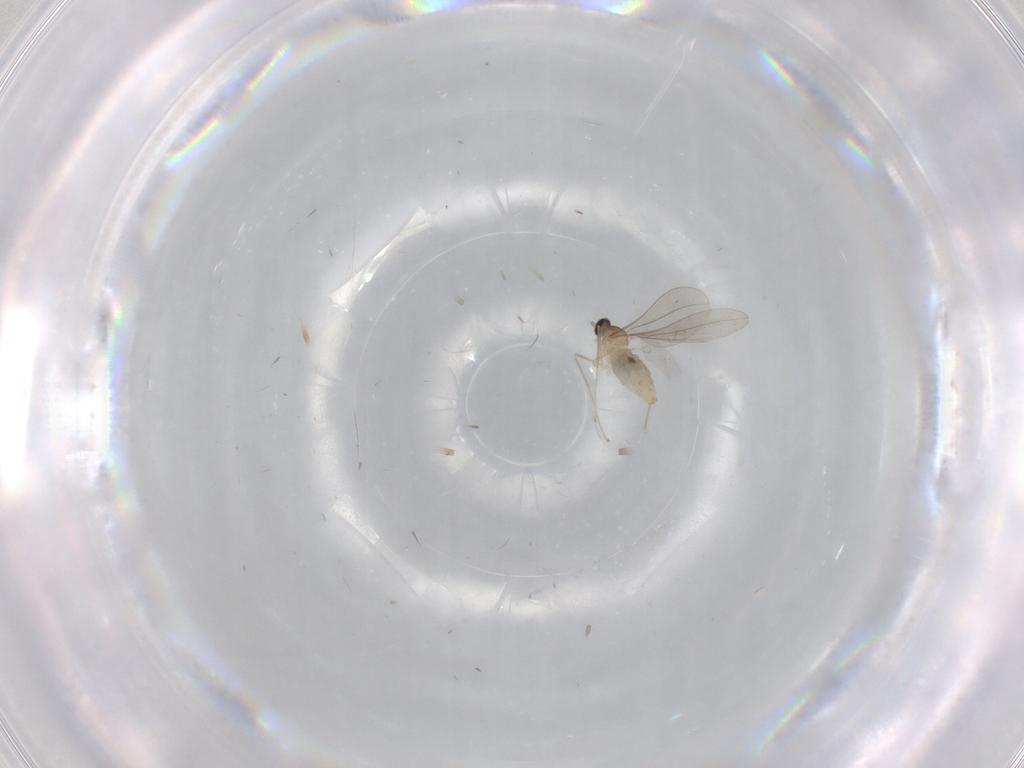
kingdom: Animalia
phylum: Arthropoda
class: Insecta
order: Diptera
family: Cecidomyiidae
